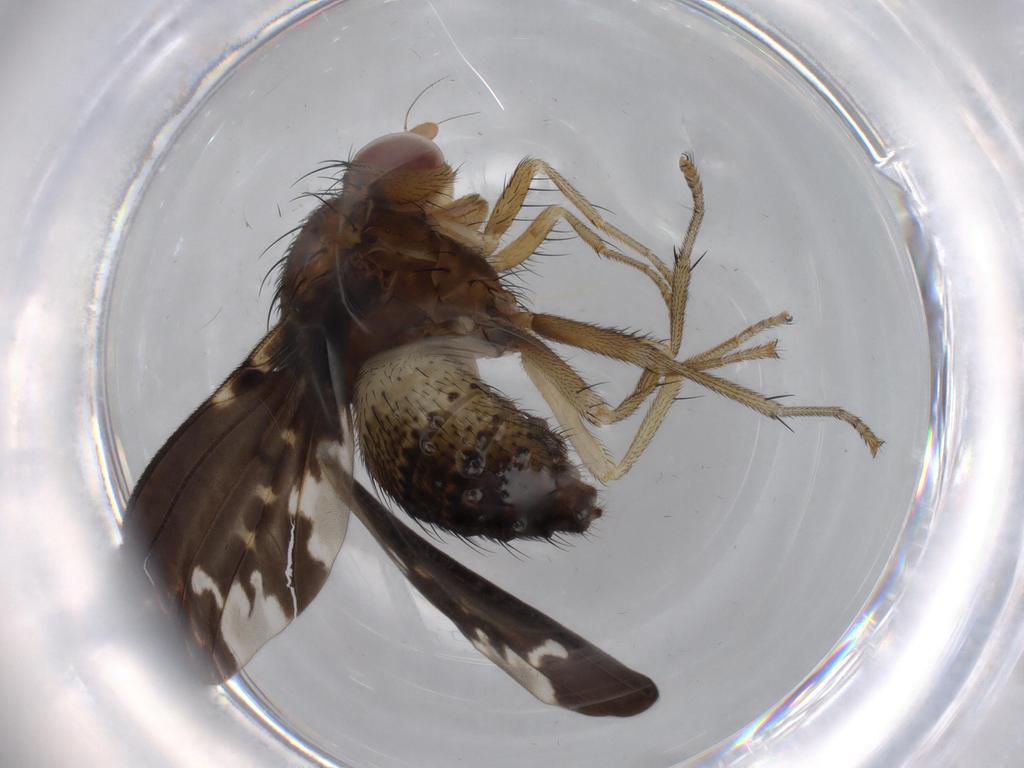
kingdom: Animalia
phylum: Arthropoda
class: Insecta
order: Diptera
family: Lauxaniidae
